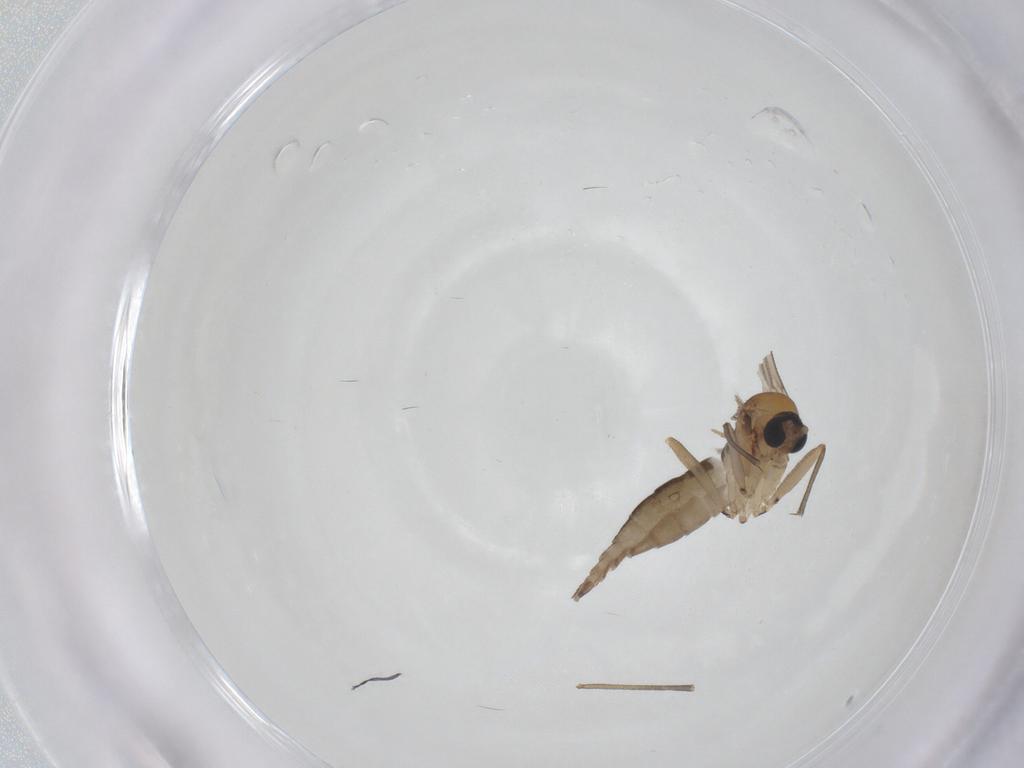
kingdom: Animalia
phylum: Arthropoda
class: Insecta
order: Diptera
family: Sciaridae
